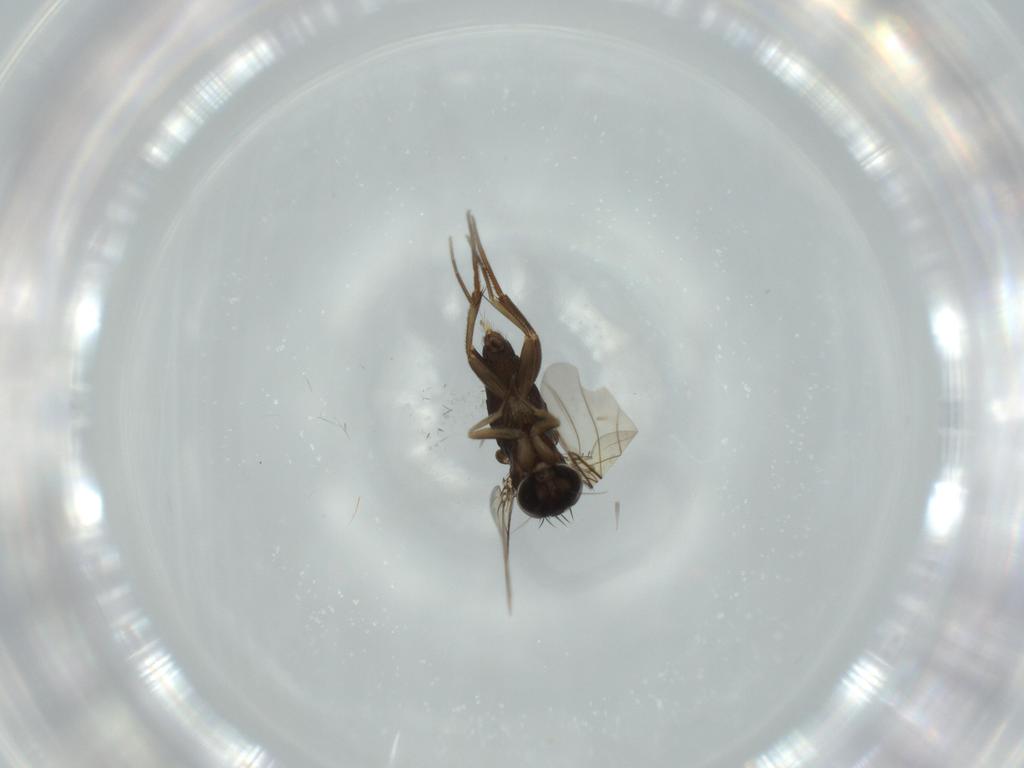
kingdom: Animalia
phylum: Arthropoda
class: Insecta
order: Diptera
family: Phoridae
